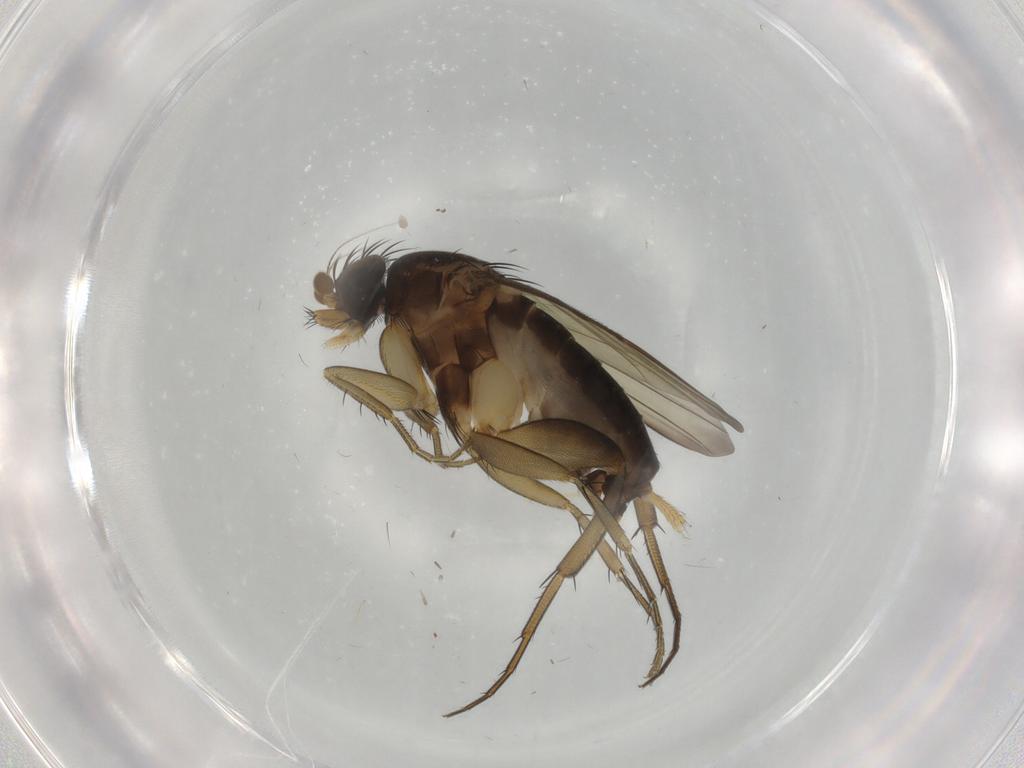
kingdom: Animalia
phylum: Arthropoda
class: Insecta
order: Diptera
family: Phoridae
